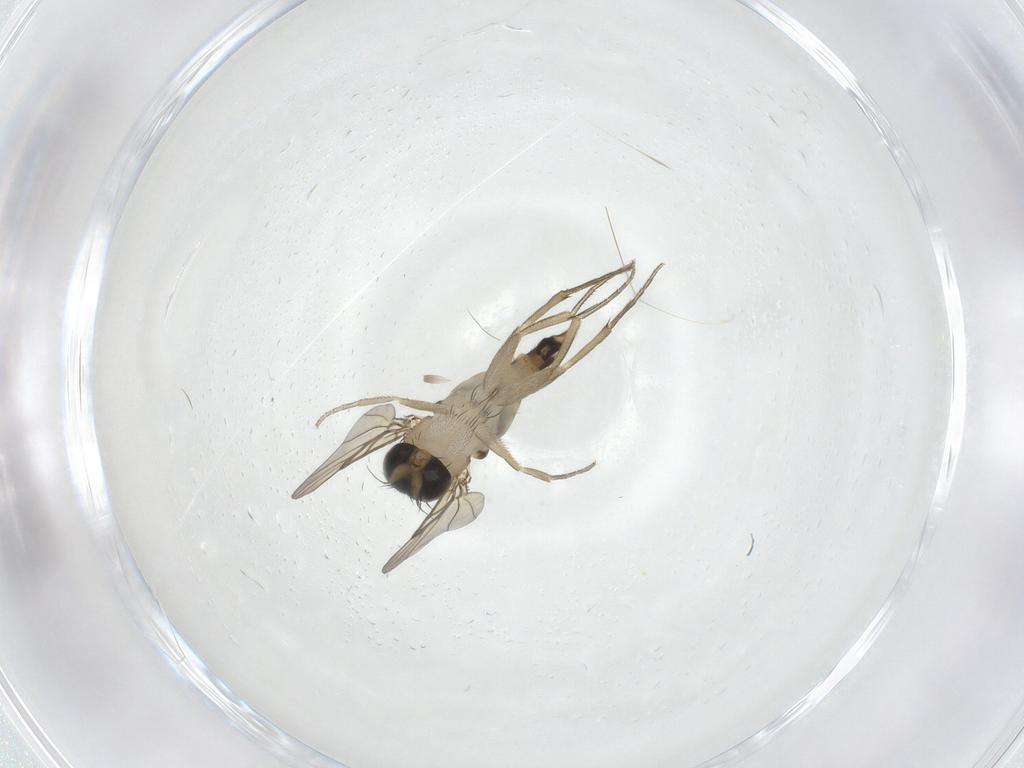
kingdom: Animalia
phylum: Arthropoda
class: Insecta
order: Diptera
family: Phoridae
